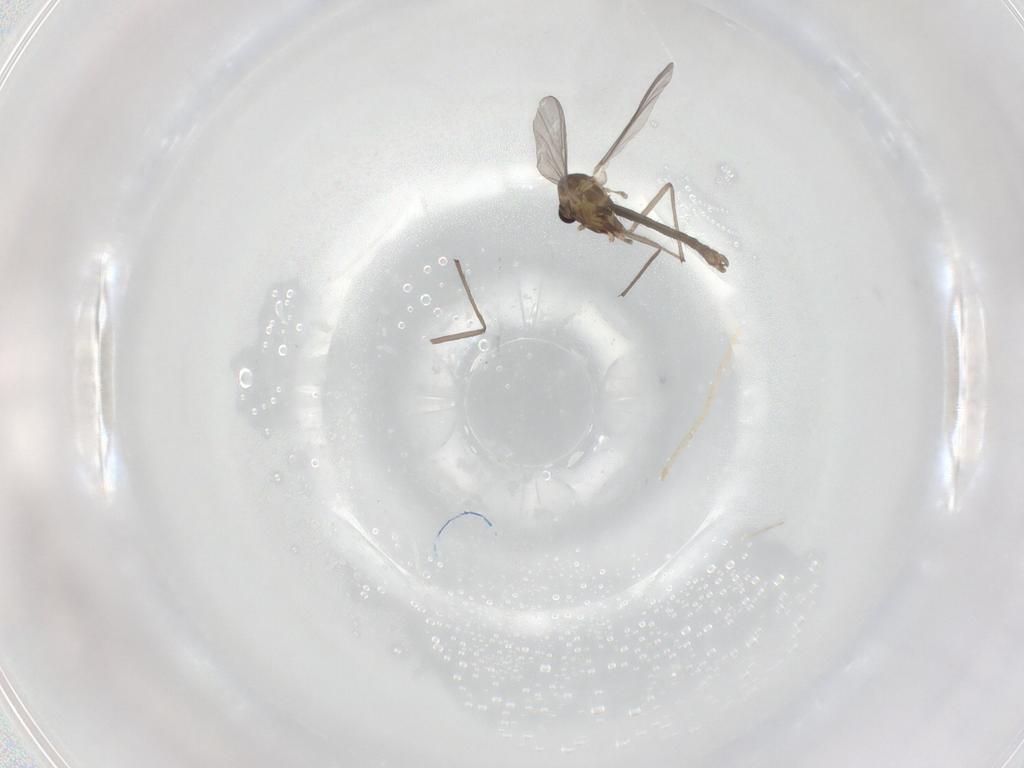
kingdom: Animalia
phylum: Arthropoda
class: Insecta
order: Diptera
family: Chironomidae
